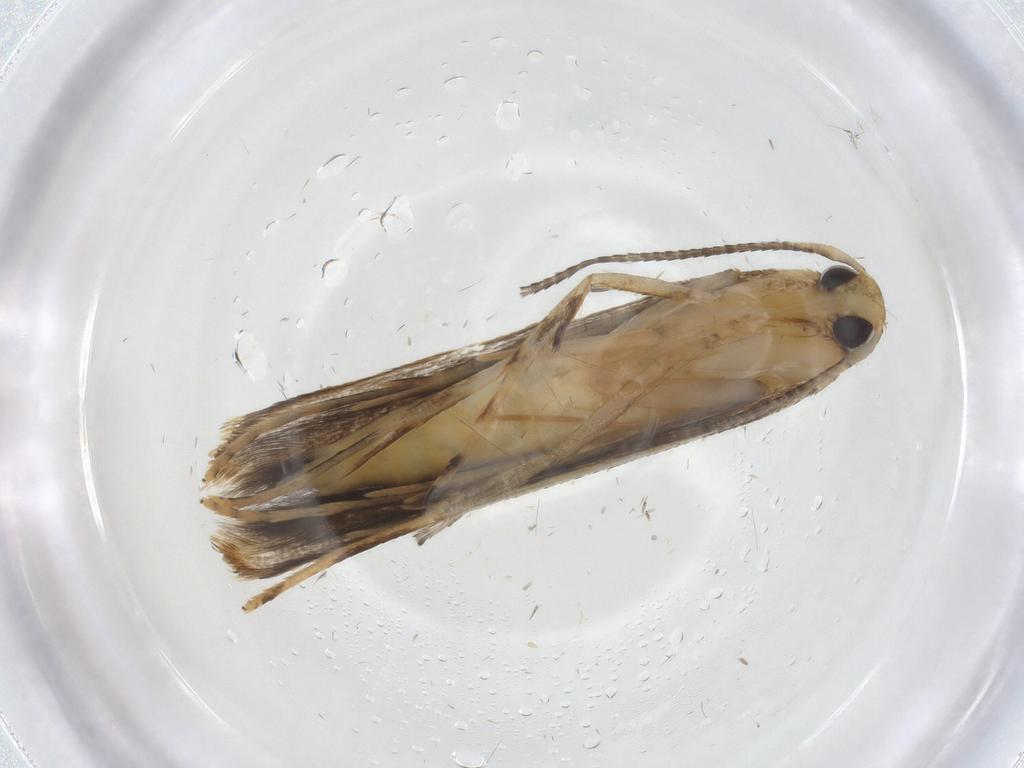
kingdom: Animalia
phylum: Arthropoda
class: Insecta
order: Lepidoptera
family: Pterolonchidae
